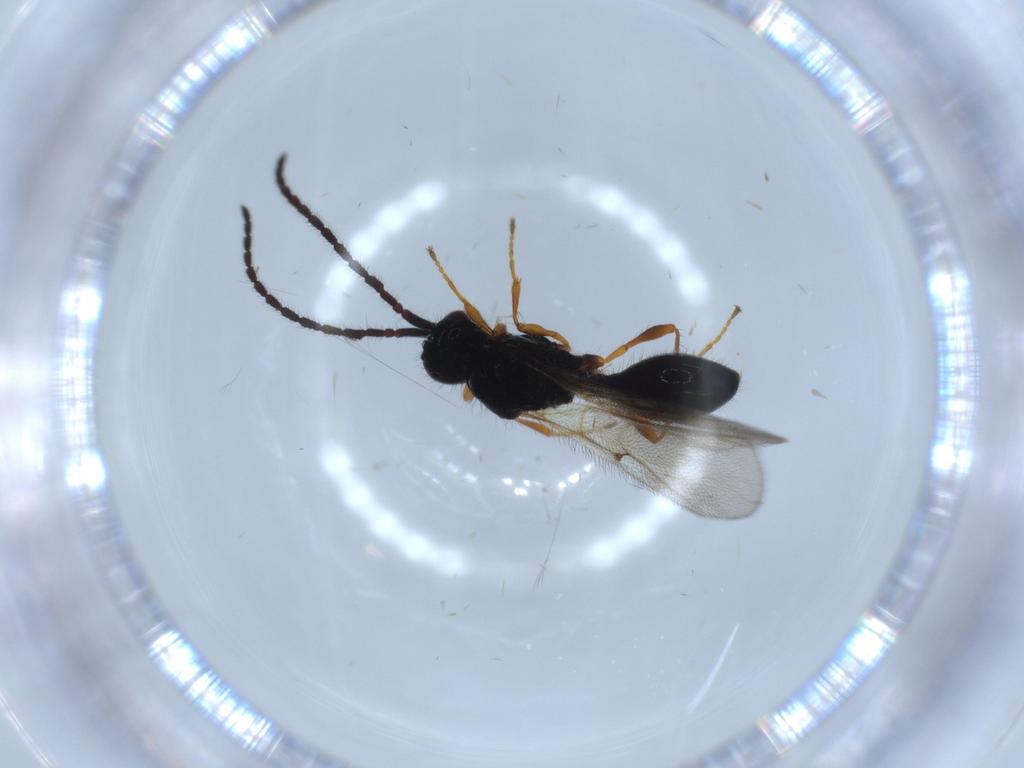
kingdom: Animalia
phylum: Arthropoda
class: Insecta
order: Hymenoptera
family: Diapriidae
